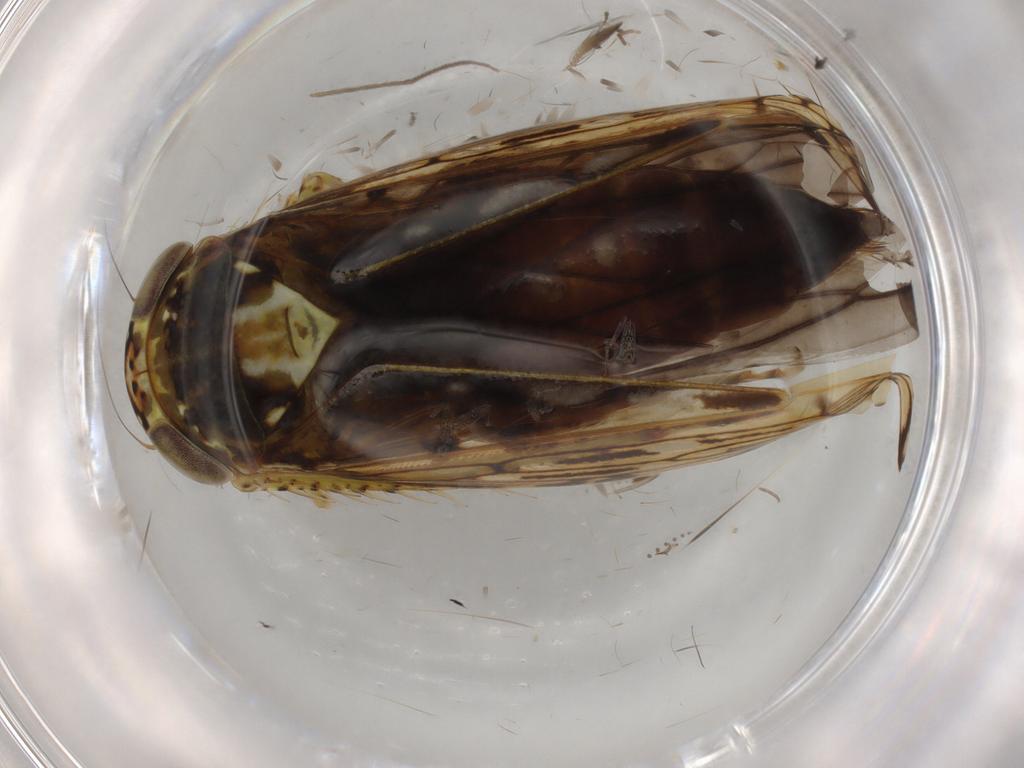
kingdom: Animalia
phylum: Arthropoda
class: Insecta
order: Hemiptera
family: Cicadellidae
